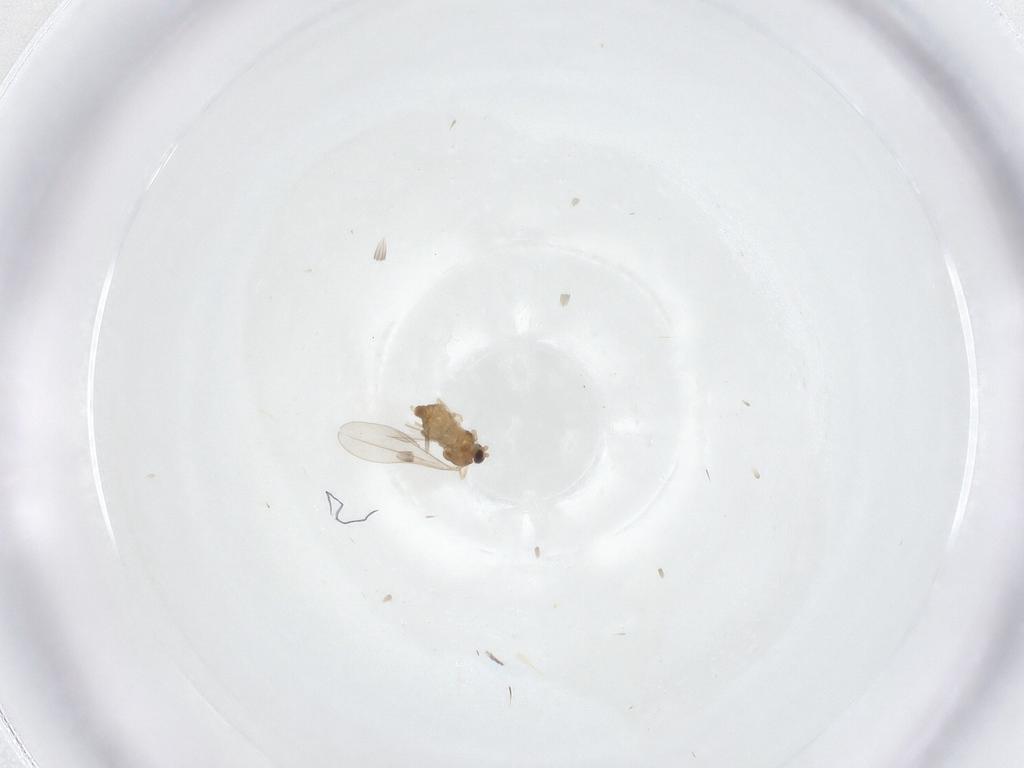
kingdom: Animalia
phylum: Arthropoda
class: Insecta
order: Diptera
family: Cecidomyiidae
